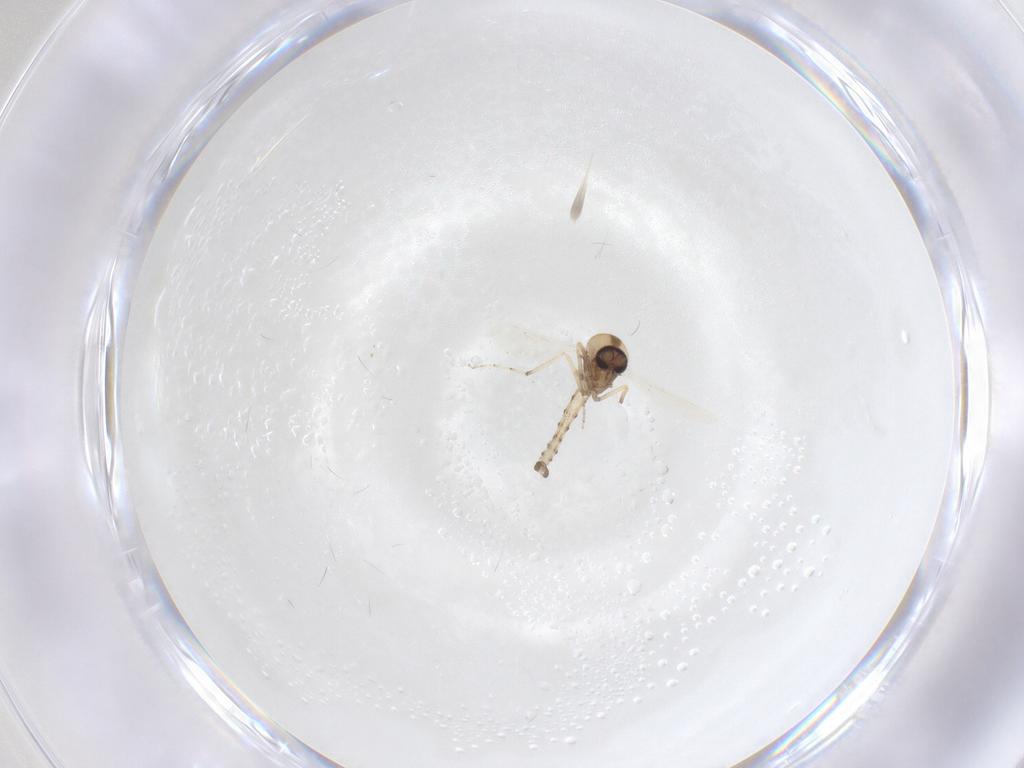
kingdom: Animalia
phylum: Arthropoda
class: Insecta
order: Diptera
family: Ceratopogonidae
